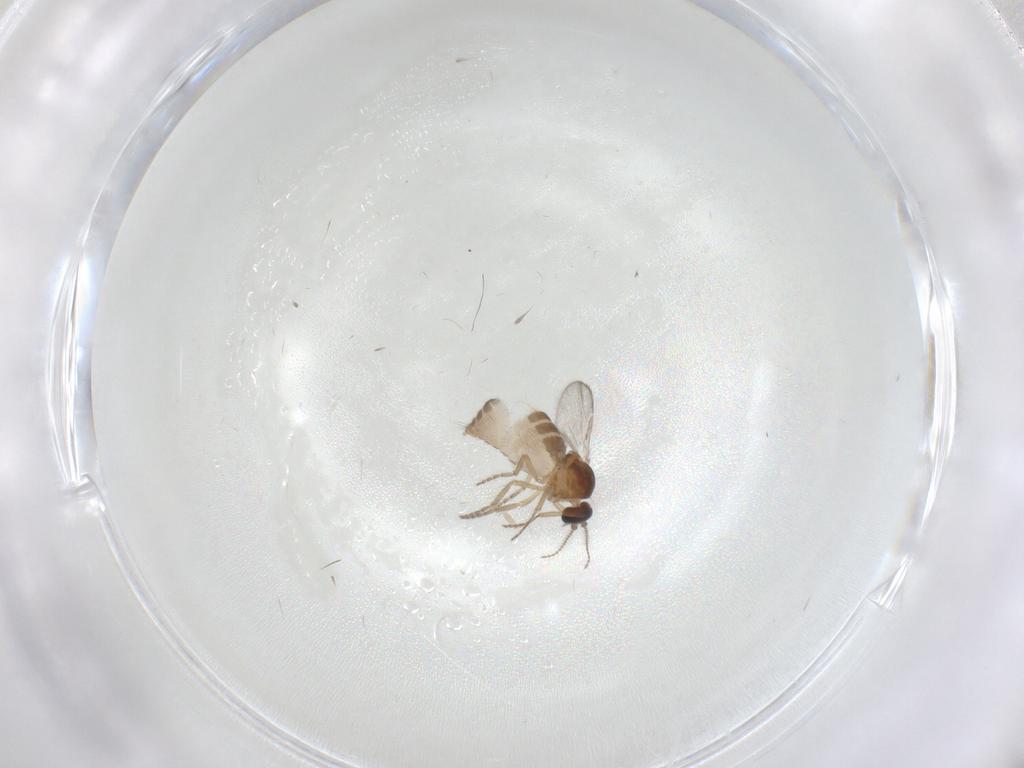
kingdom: Animalia
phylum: Arthropoda
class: Insecta
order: Diptera
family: Ceratopogonidae
